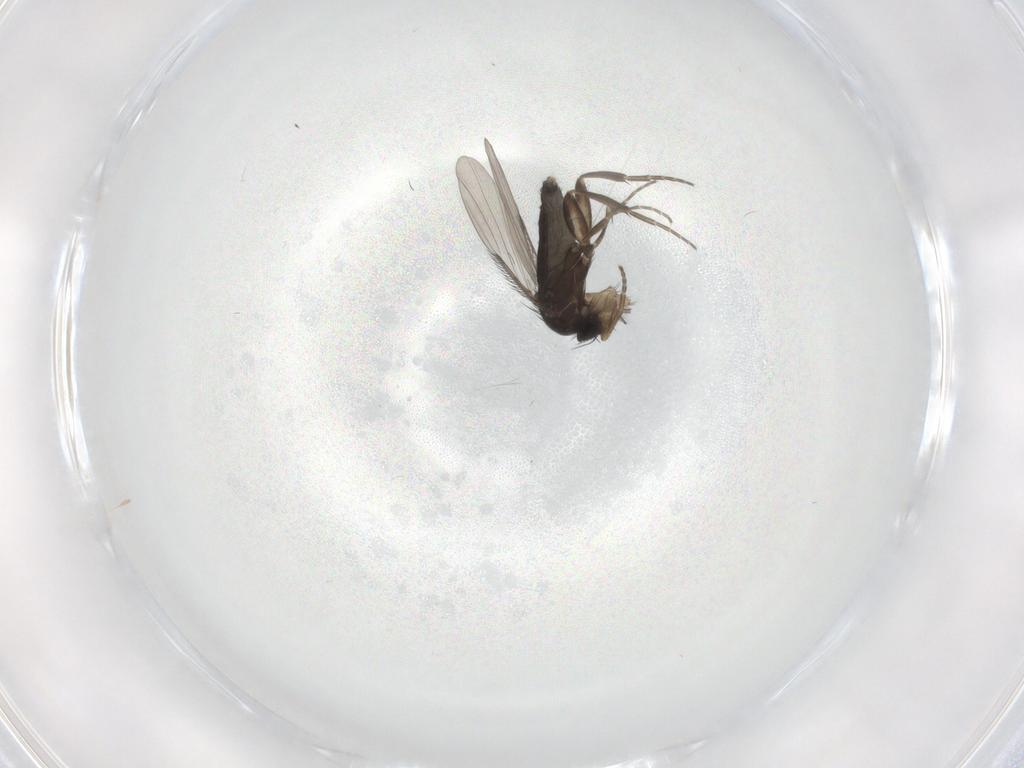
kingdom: Animalia
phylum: Arthropoda
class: Insecta
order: Diptera
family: Phoridae
